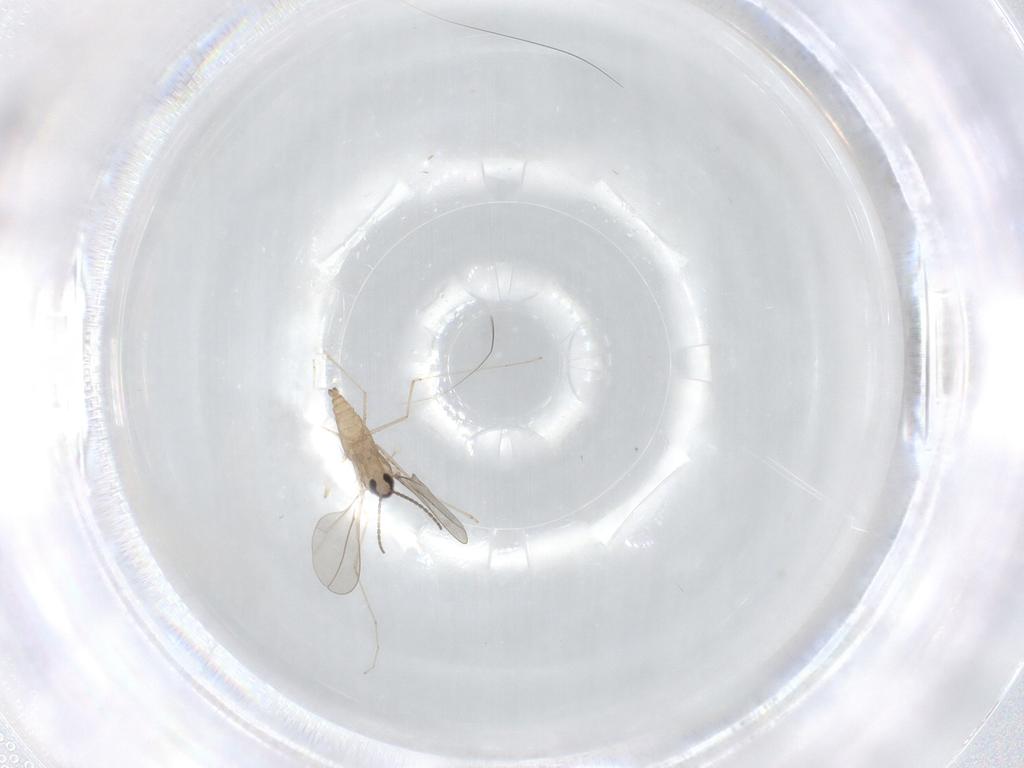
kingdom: Animalia
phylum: Arthropoda
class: Insecta
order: Diptera
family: Cecidomyiidae
